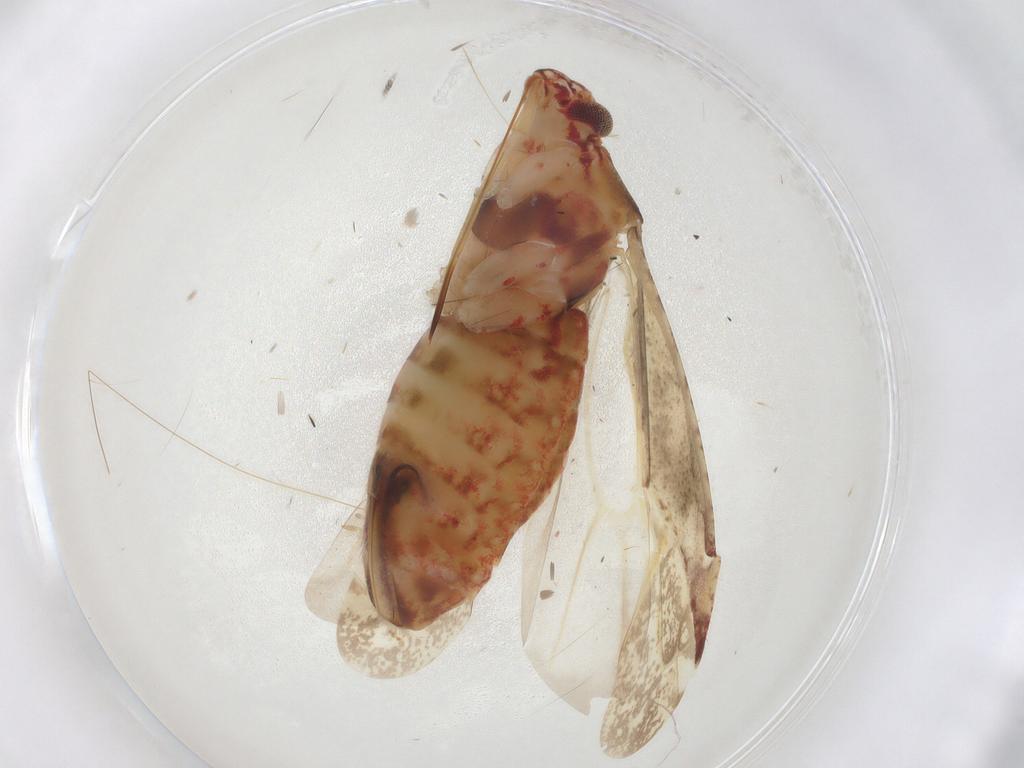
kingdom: Animalia
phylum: Arthropoda
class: Insecta
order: Hemiptera
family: Miridae
